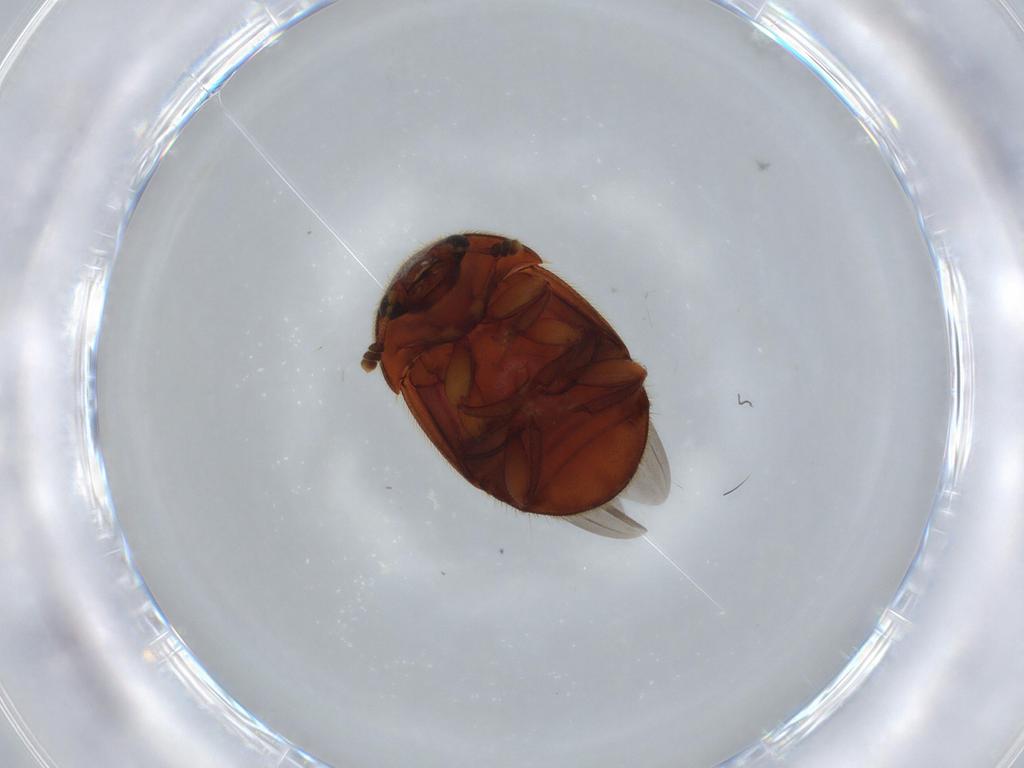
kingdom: Animalia
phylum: Arthropoda
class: Insecta
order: Coleoptera
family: Nitidulidae
